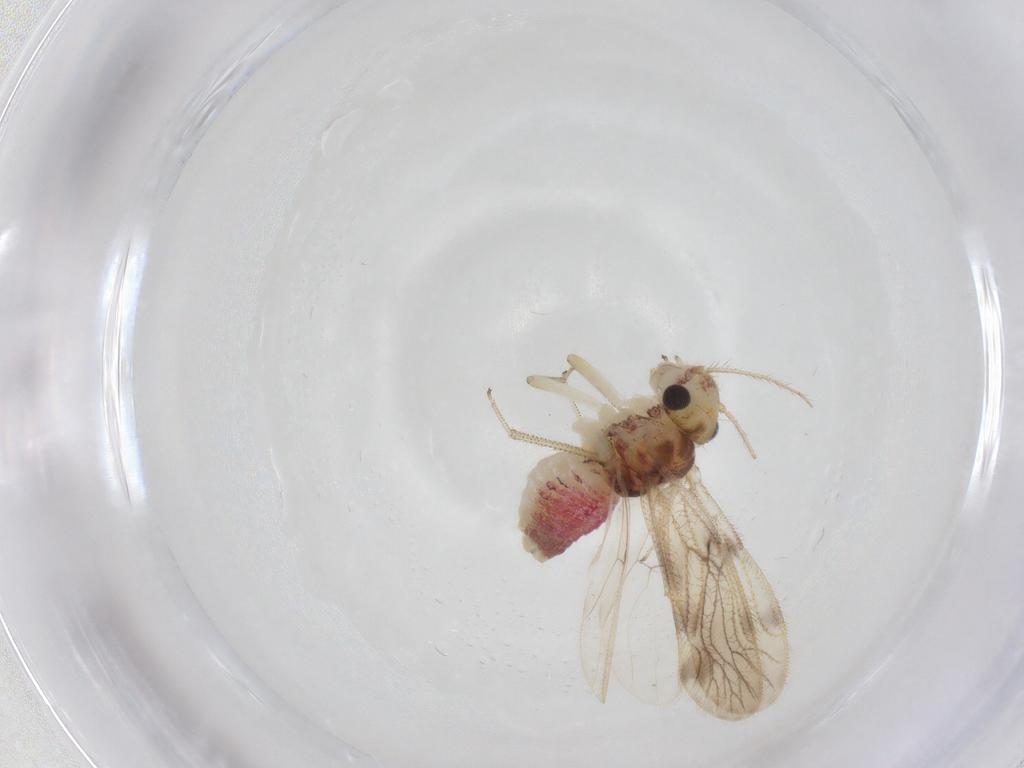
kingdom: Animalia
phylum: Arthropoda
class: Insecta
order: Psocodea
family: Pseudocaeciliidae
